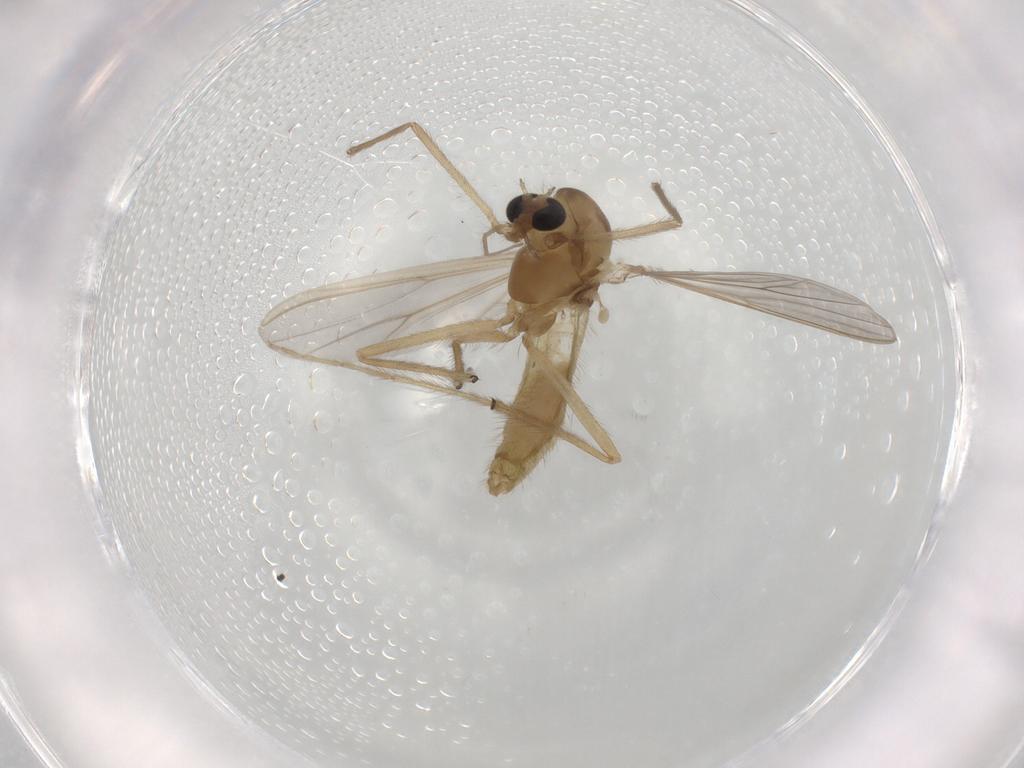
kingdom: Animalia
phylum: Arthropoda
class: Insecta
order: Diptera
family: Chironomidae
